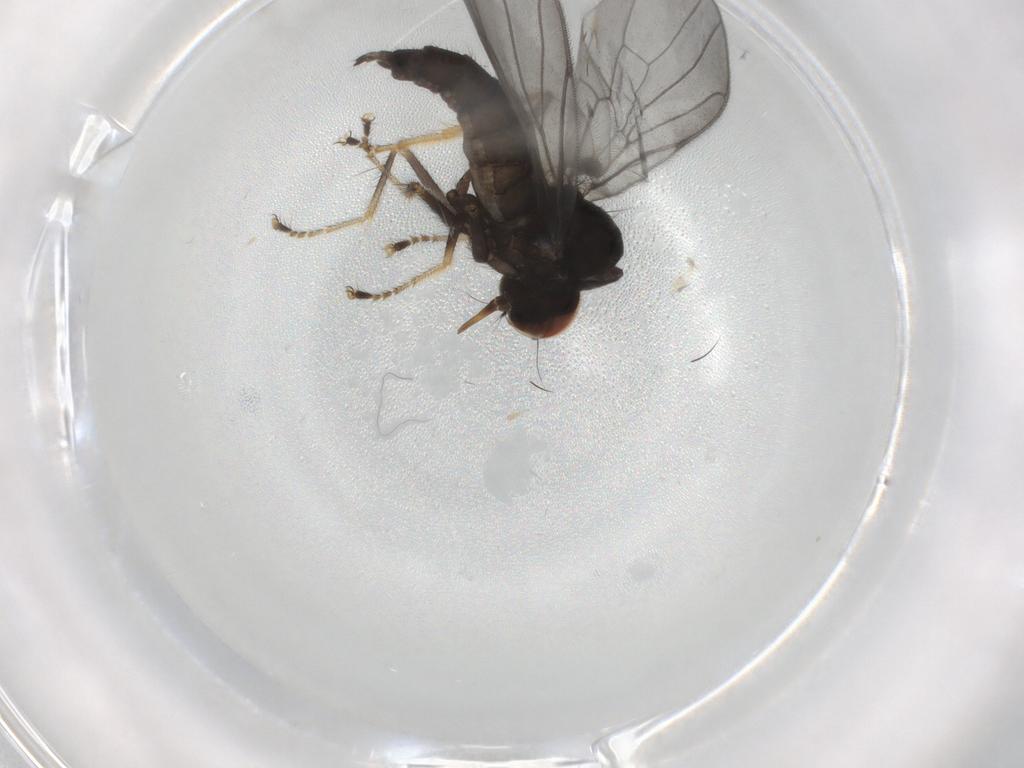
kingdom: Animalia
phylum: Arthropoda
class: Insecta
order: Diptera
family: Hybotidae
